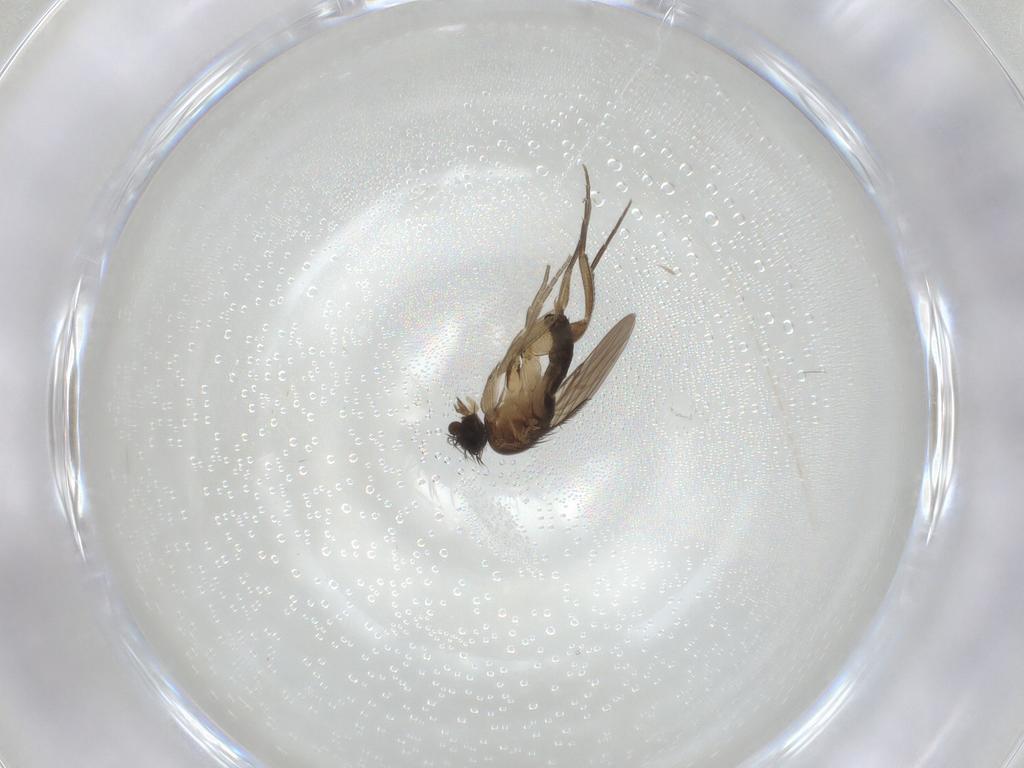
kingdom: Animalia
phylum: Arthropoda
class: Insecta
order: Diptera
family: Phoridae
